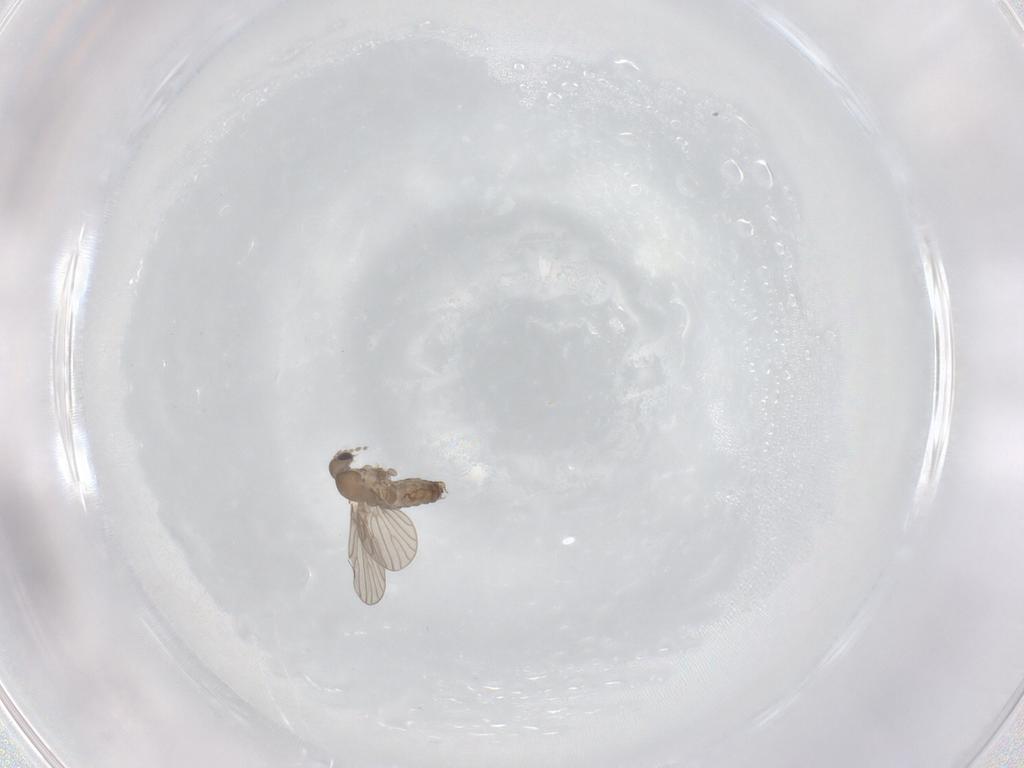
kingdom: Animalia
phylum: Arthropoda
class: Insecta
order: Diptera
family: Psychodidae
